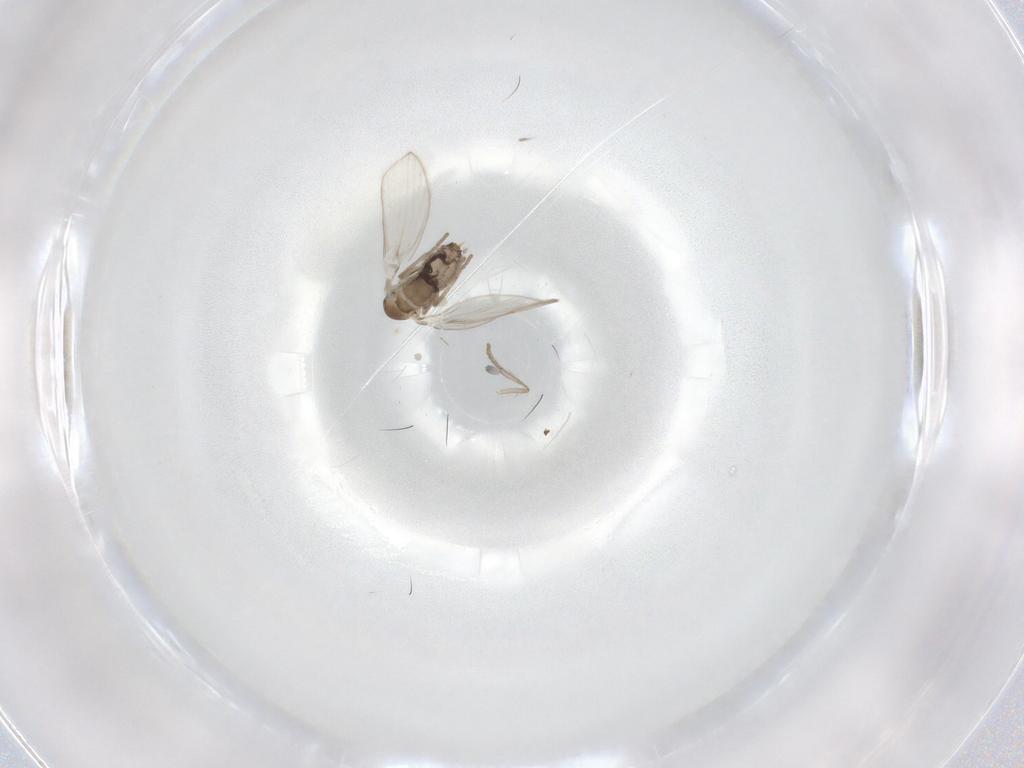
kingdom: Animalia
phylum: Arthropoda
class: Insecta
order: Diptera
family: Psychodidae
